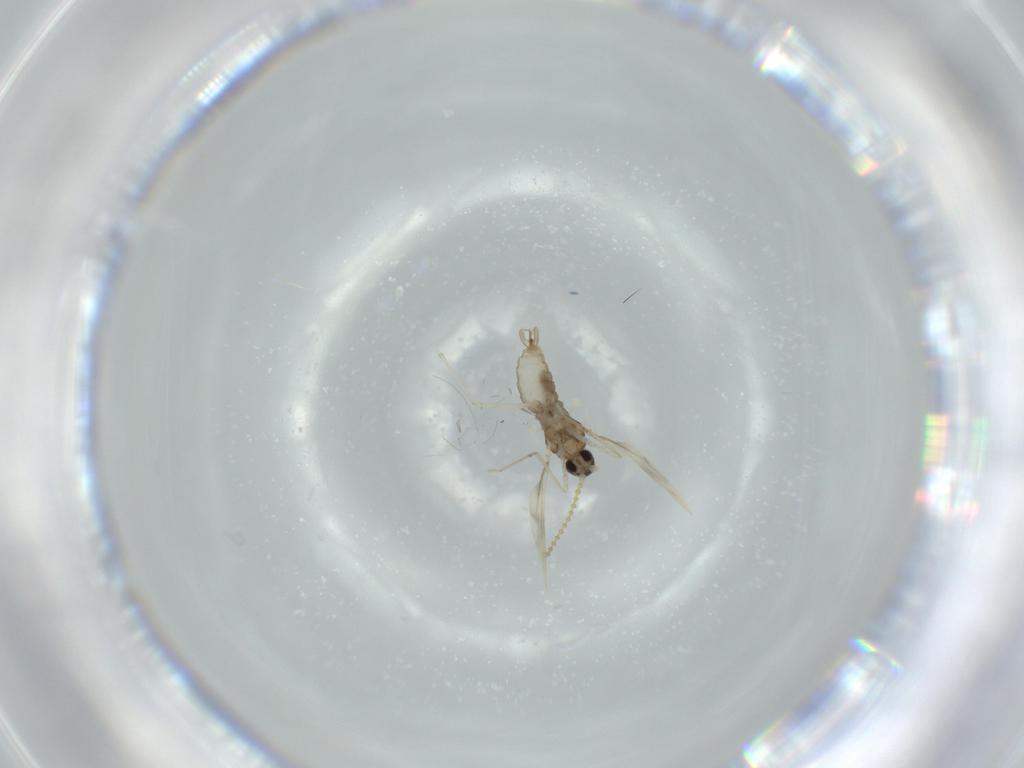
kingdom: Animalia
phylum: Arthropoda
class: Insecta
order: Diptera
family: Cecidomyiidae
